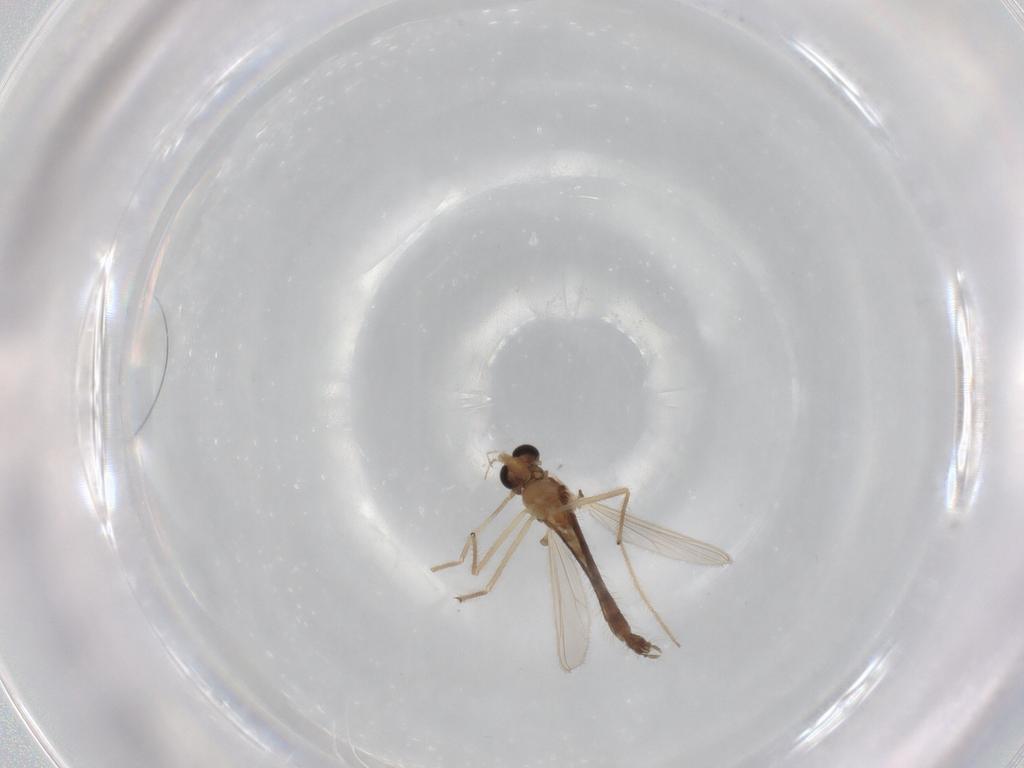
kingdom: Animalia
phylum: Arthropoda
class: Insecta
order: Diptera
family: Chironomidae
